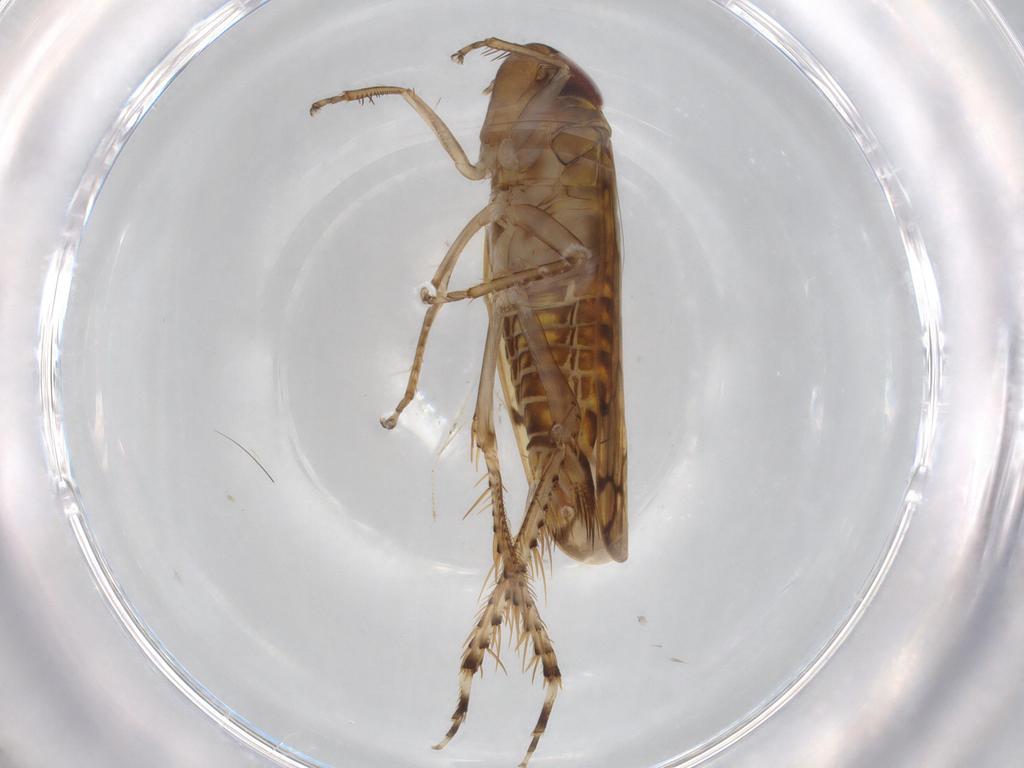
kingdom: Animalia
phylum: Arthropoda
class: Insecta
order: Hemiptera
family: Cicadellidae
